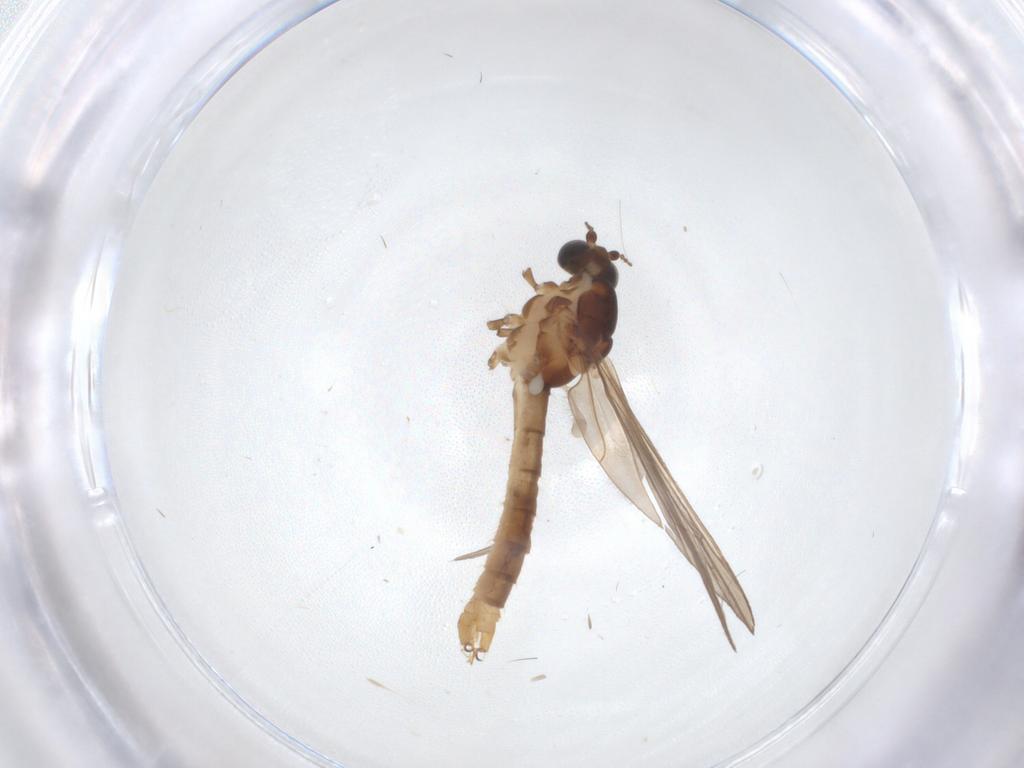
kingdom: Animalia
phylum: Arthropoda
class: Insecta
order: Diptera
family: Limoniidae
